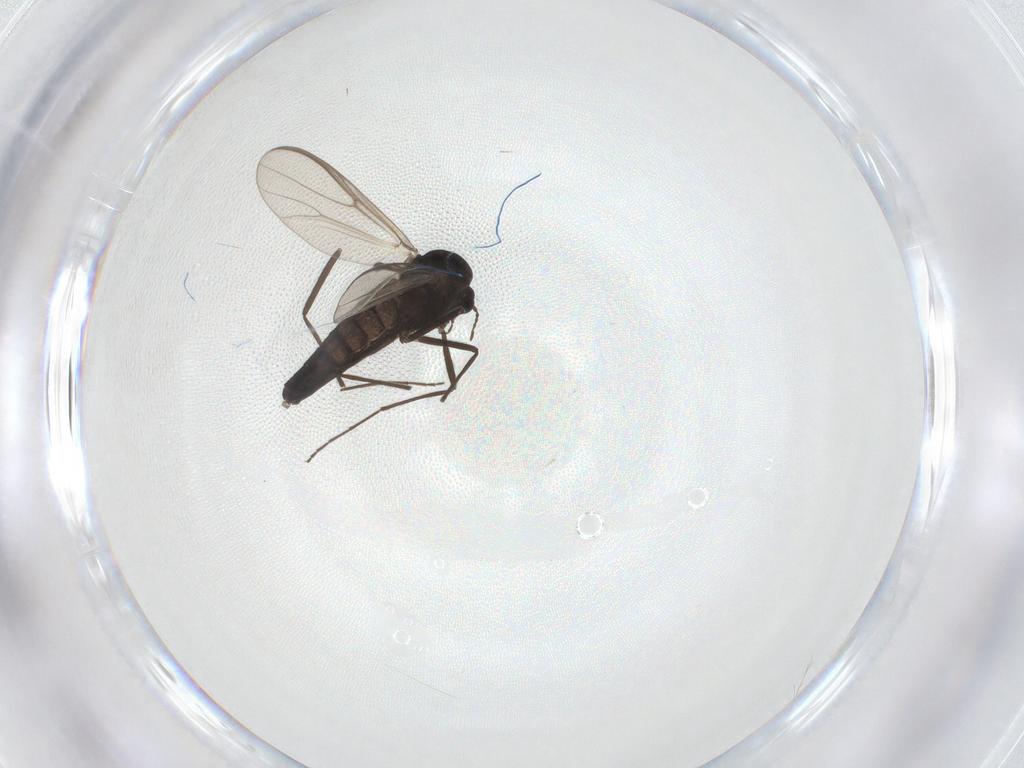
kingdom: Animalia
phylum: Arthropoda
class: Insecta
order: Diptera
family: Chironomidae
